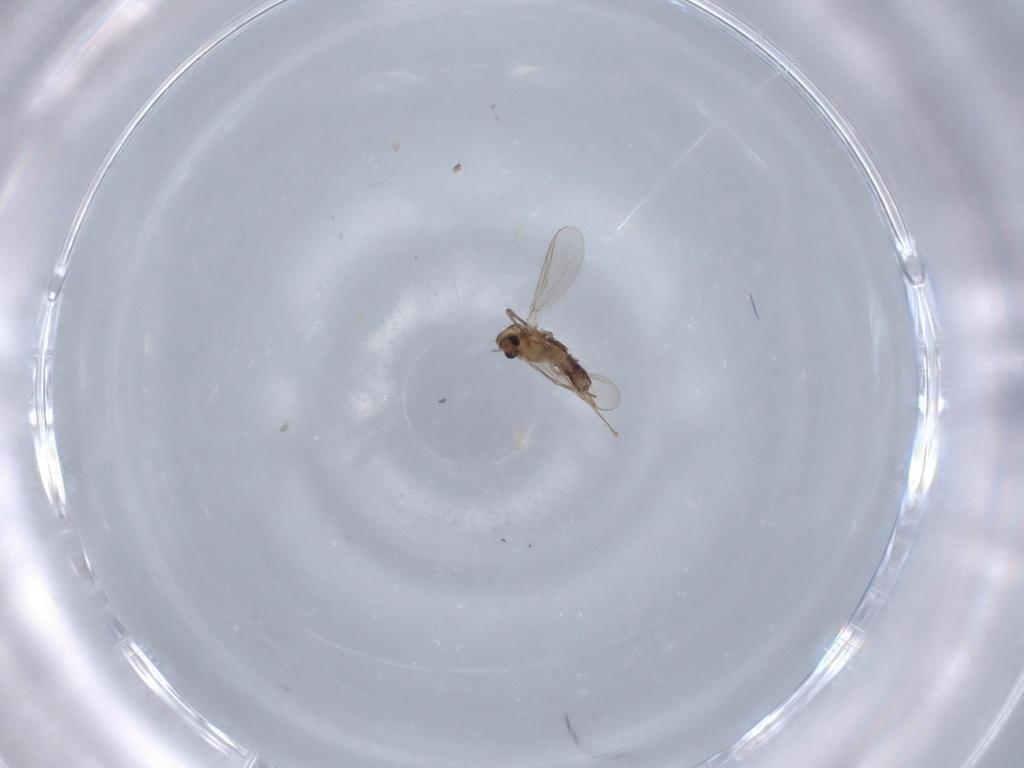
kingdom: Animalia
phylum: Arthropoda
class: Insecta
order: Diptera
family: Chironomidae
